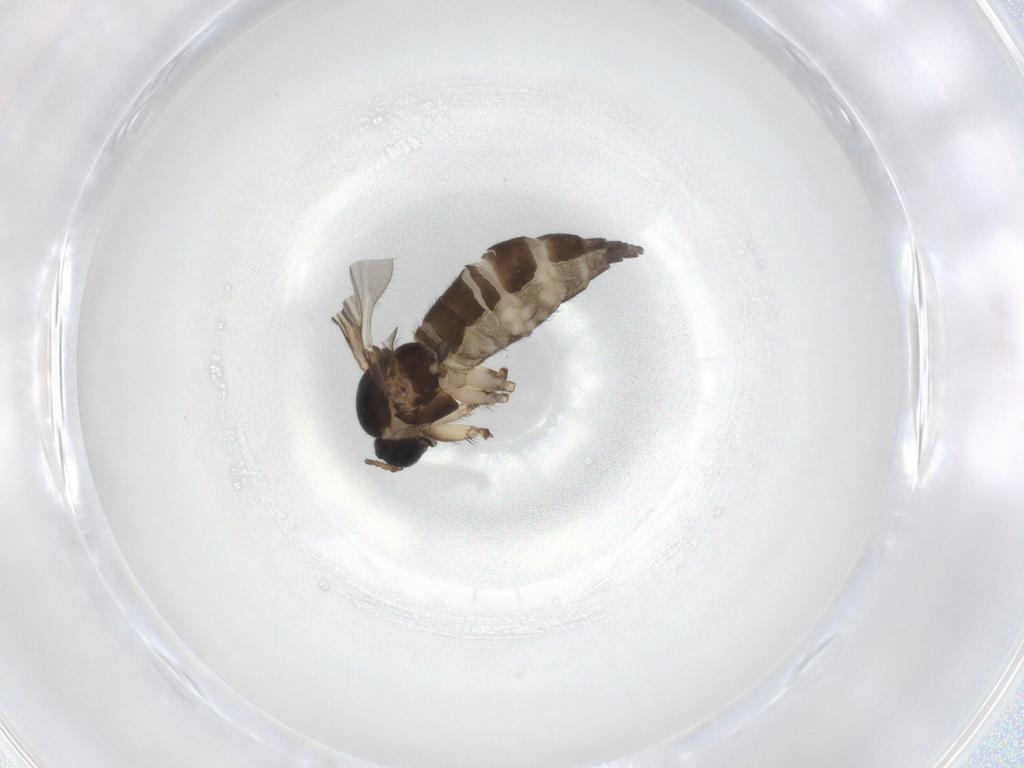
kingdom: Animalia
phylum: Arthropoda
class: Insecta
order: Diptera
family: Sciaridae
